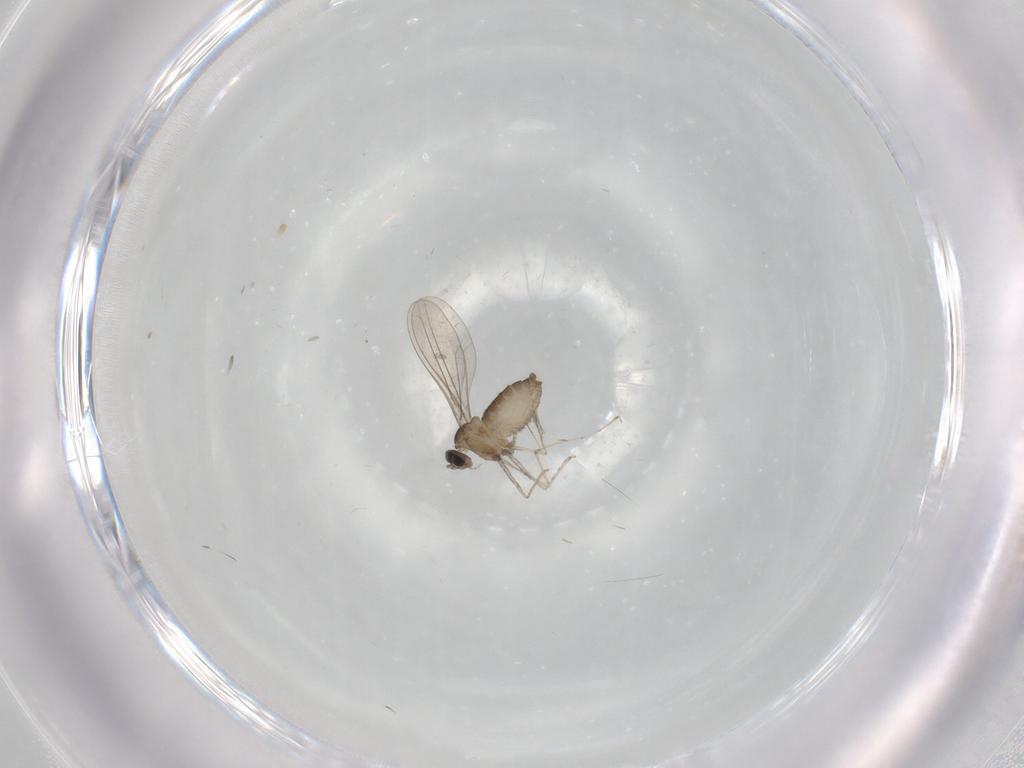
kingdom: Animalia
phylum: Arthropoda
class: Insecta
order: Diptera
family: Cecidomyiidae
